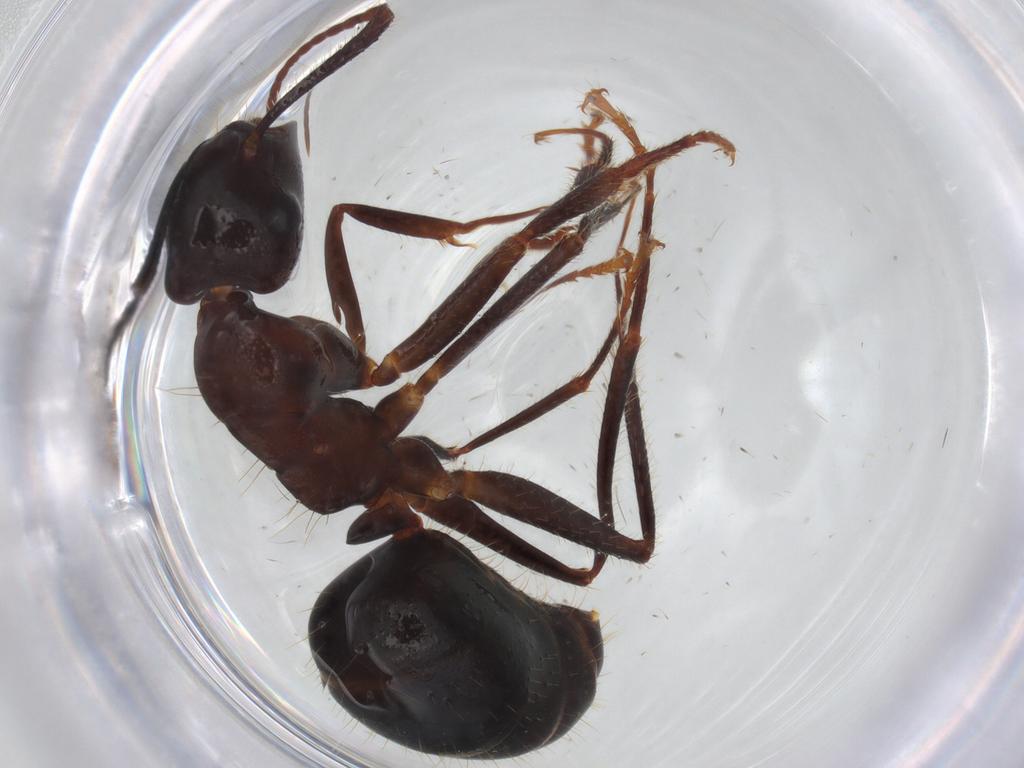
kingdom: Animalia
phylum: Arthropoda
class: Insecta
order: Hymenoptera
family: Formicidae
